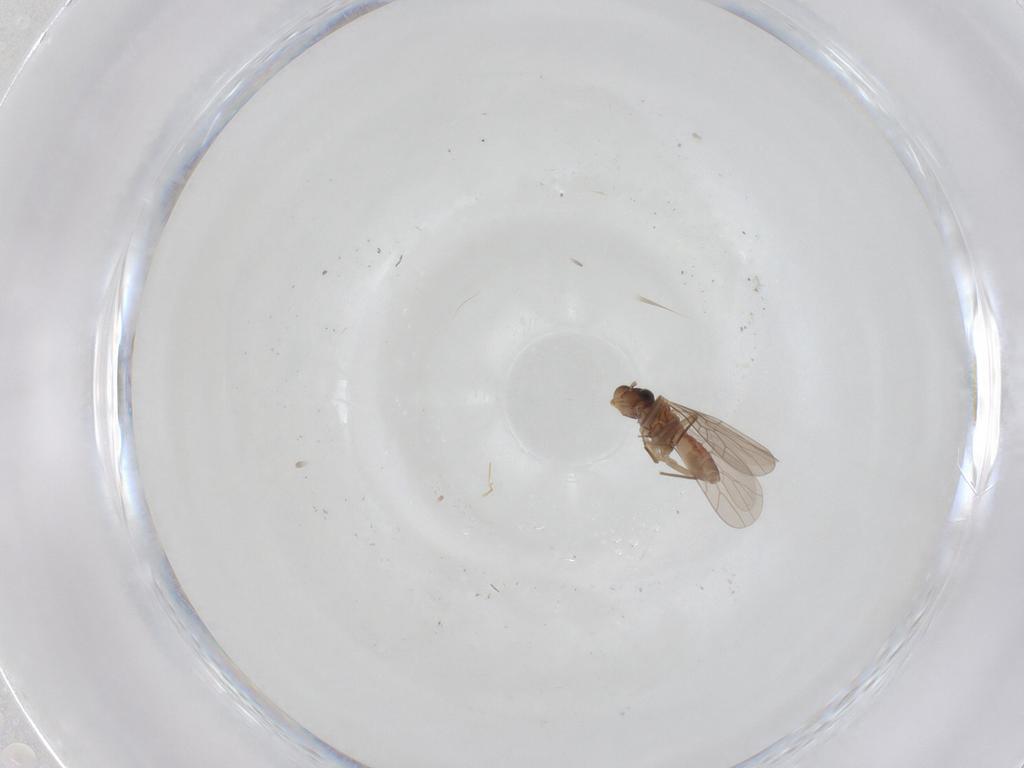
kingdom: Animalia
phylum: Arthropoda
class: Insecta
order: Psocodea
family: Lepidopsocidae
